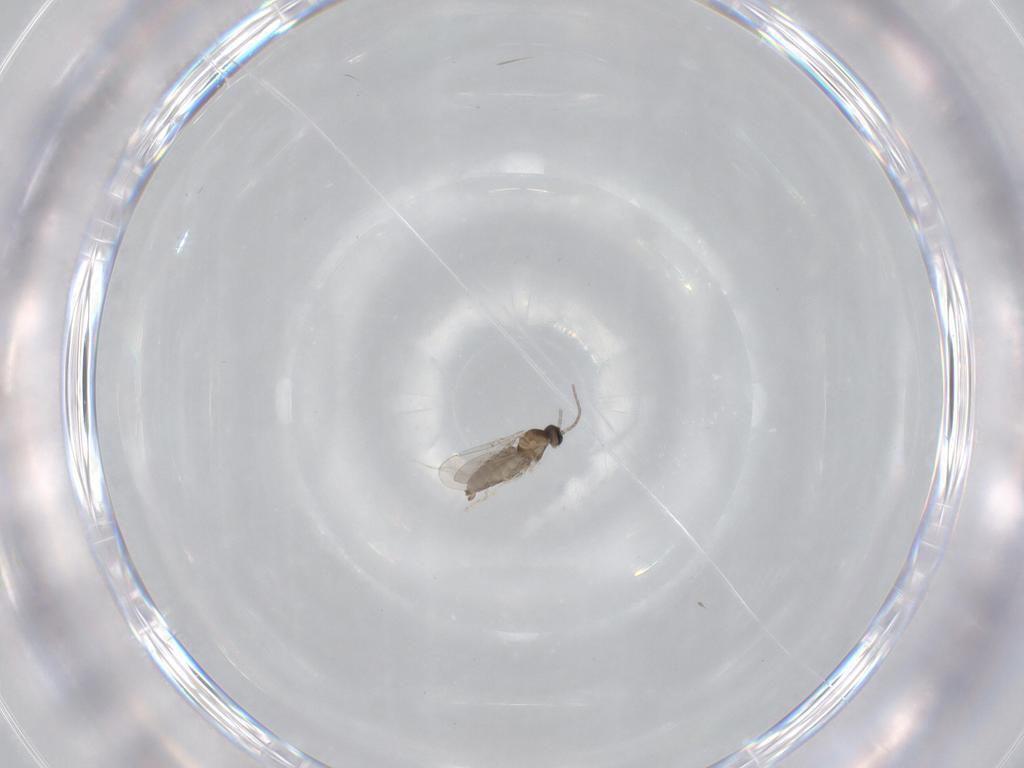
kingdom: Animalia
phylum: Arthropoda
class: Insecta
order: Diptera
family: Cecidomyiidae
